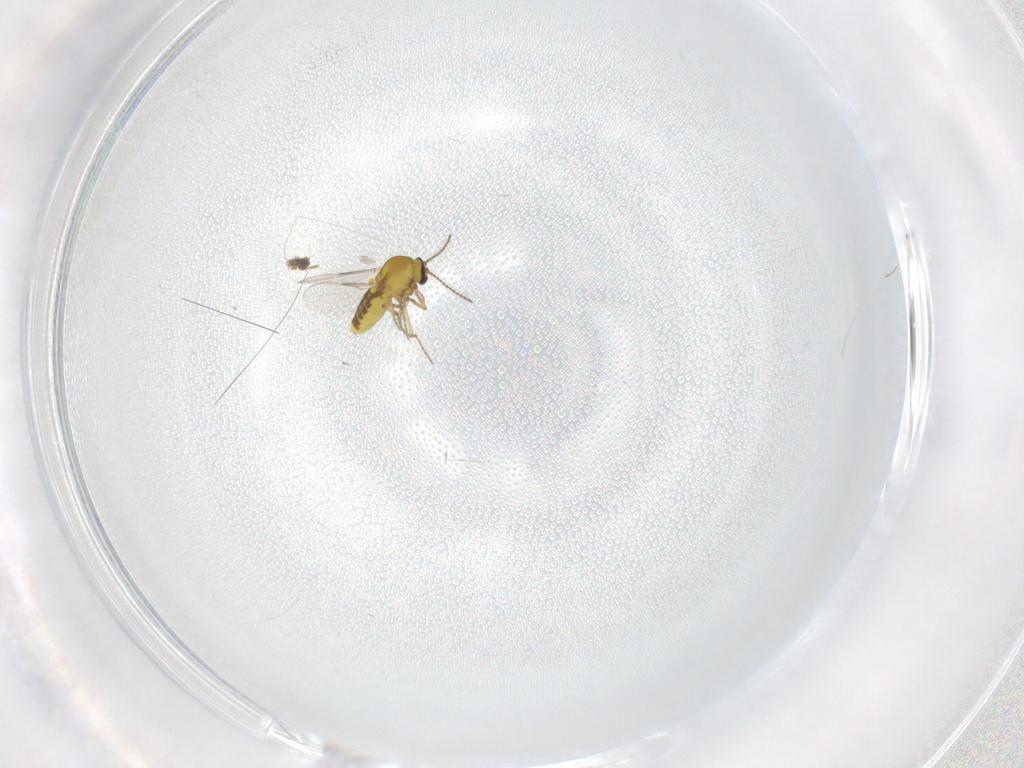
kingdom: Animalia
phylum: Arthropoda
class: Insecta
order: Diptera
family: Ceratopogonidae
